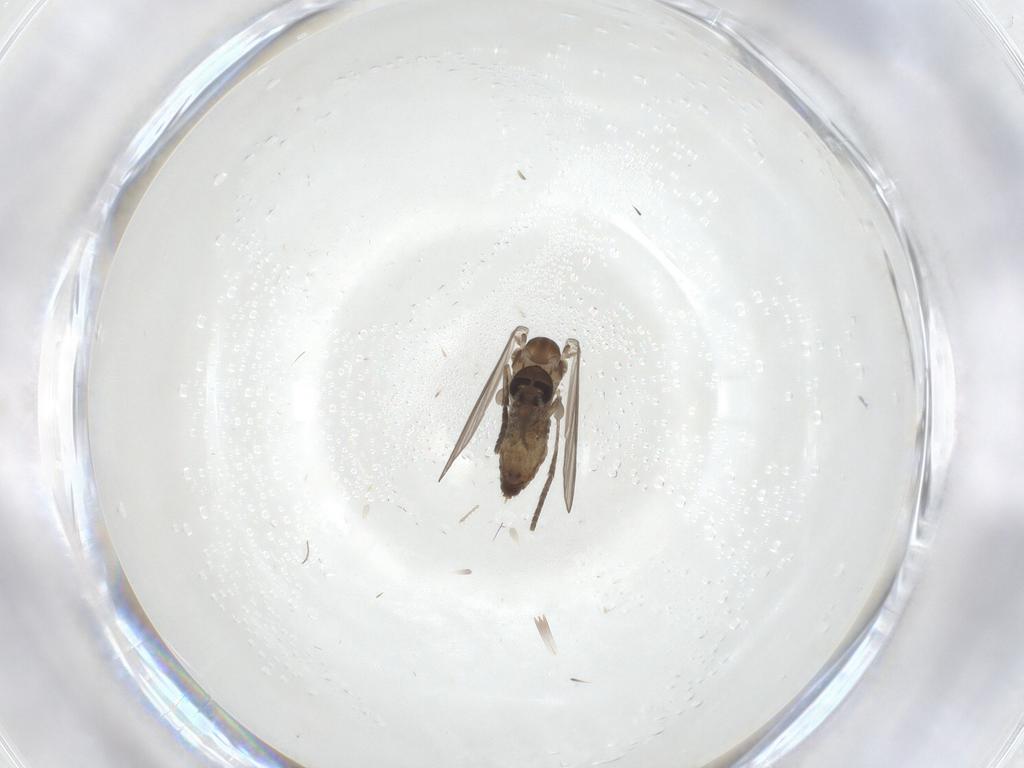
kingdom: Animalia
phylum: Arthropoda
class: Insecta
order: Diptera
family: Psychodidae
